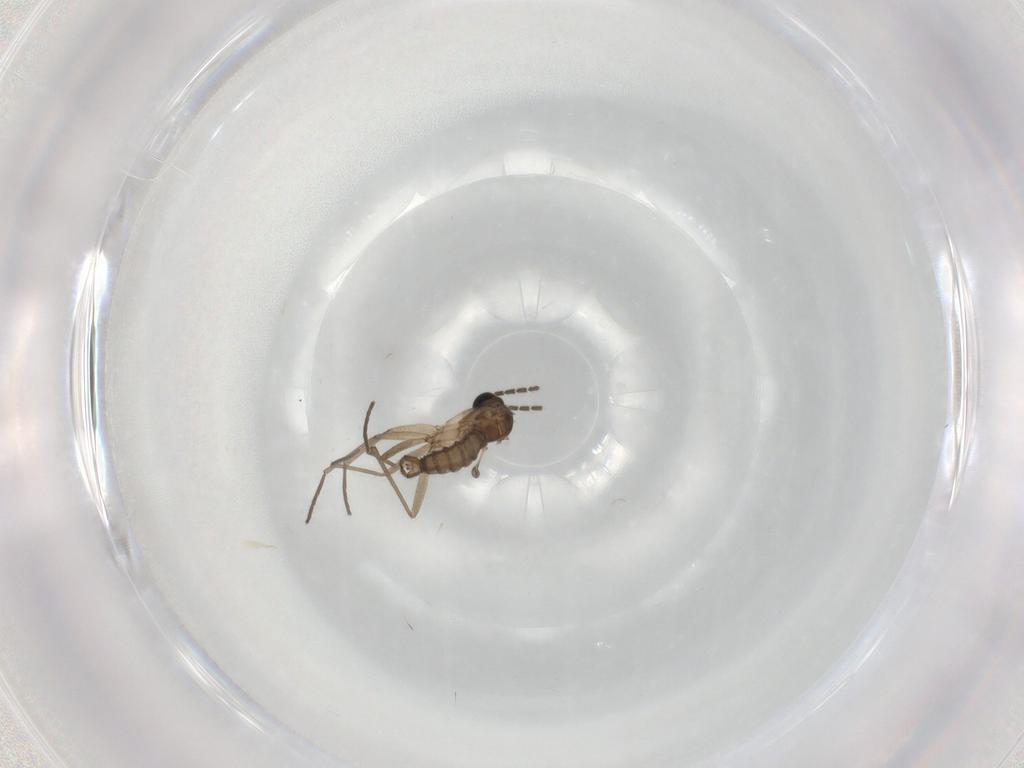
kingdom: Animalia
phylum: Arthropoda
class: Insecta
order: Diptera
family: Sciaridae
